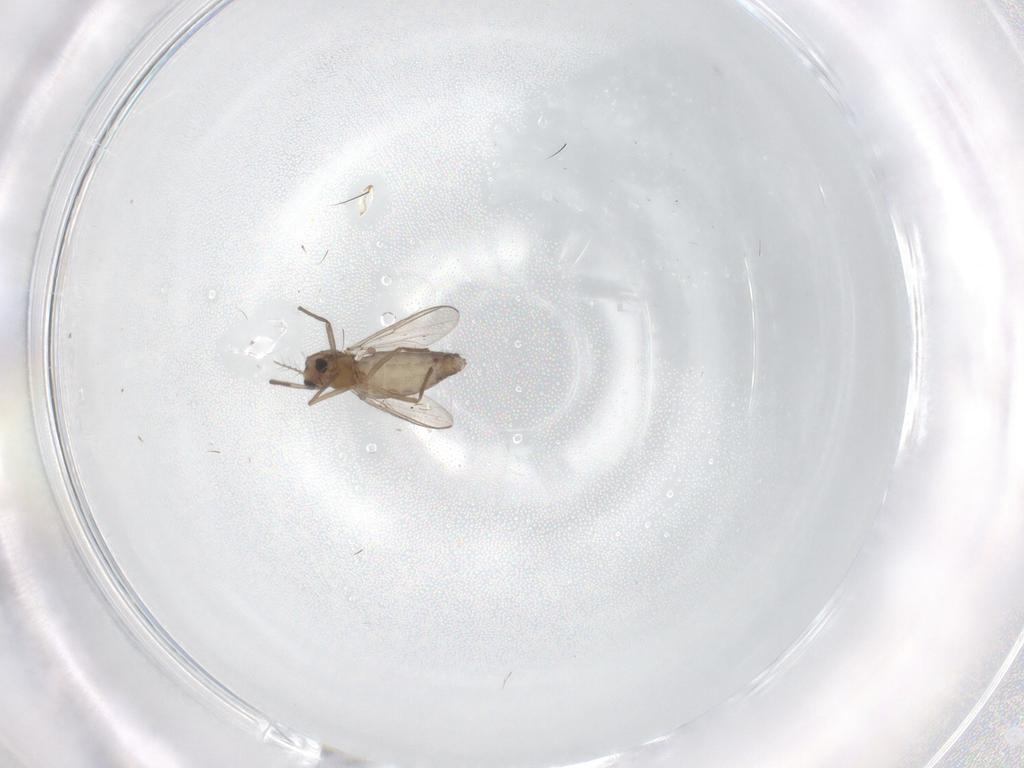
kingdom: Animalia
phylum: Arthropoda
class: Insecta
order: Diptera
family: Chironomidae
